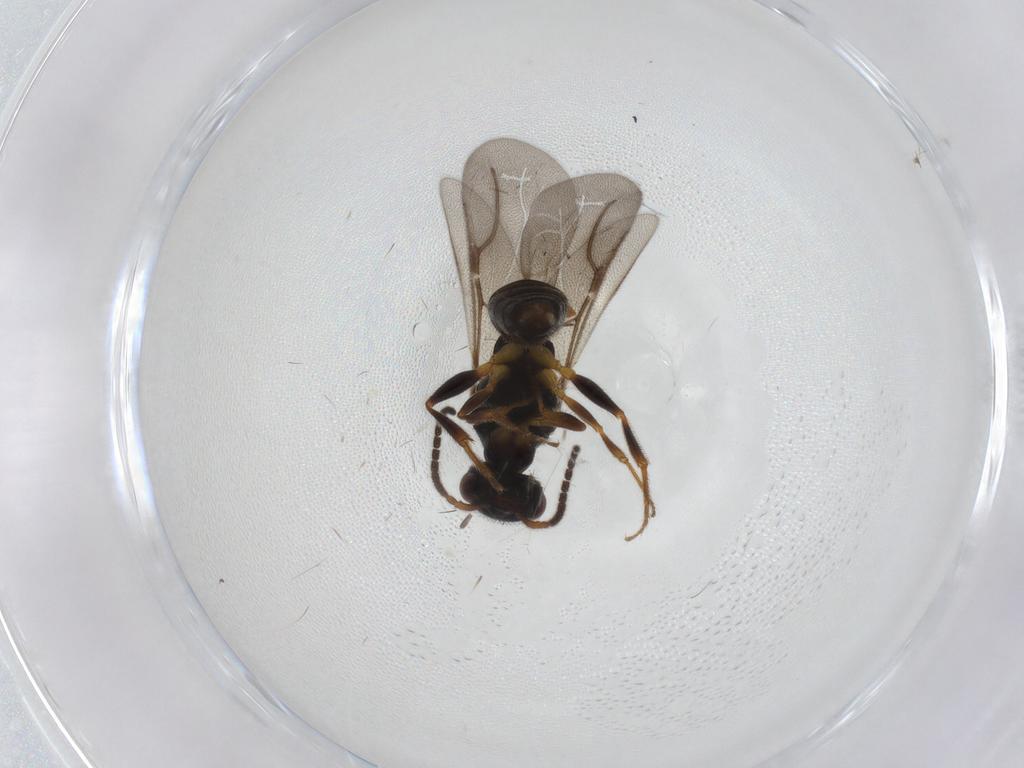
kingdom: Animalia
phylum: Arthropoda
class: Insecta
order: Hymenoptera
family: Bethylidae
